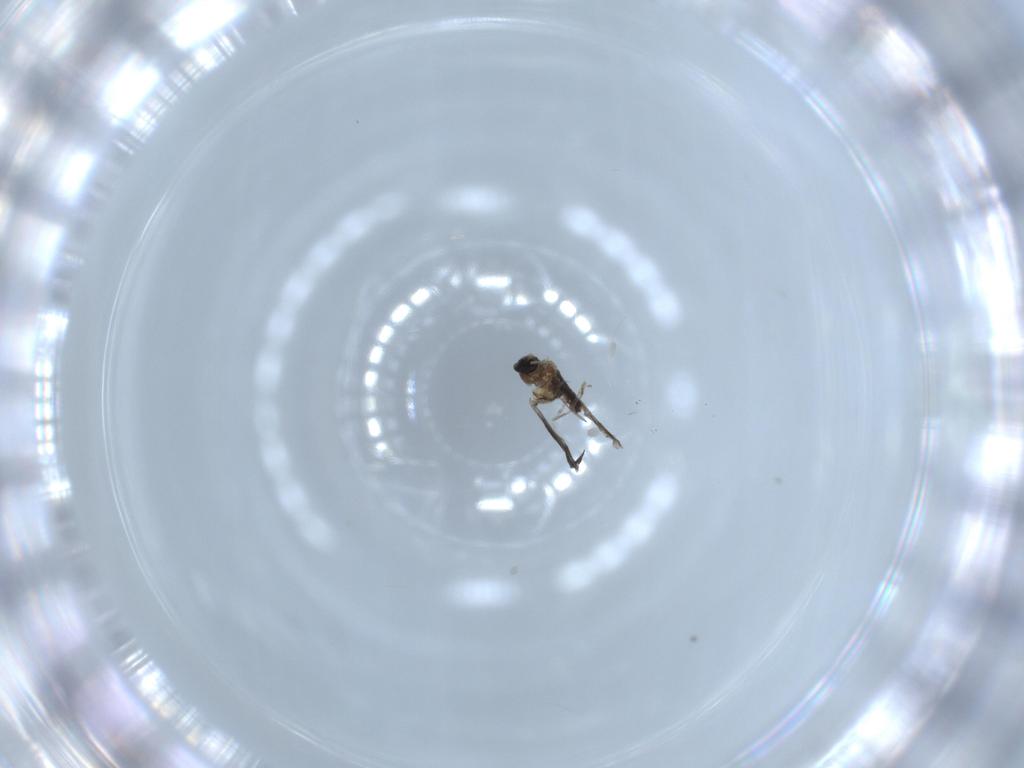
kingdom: Animalia
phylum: Arthropoda
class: Insecta
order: Diptera
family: Cecidomyiidae
